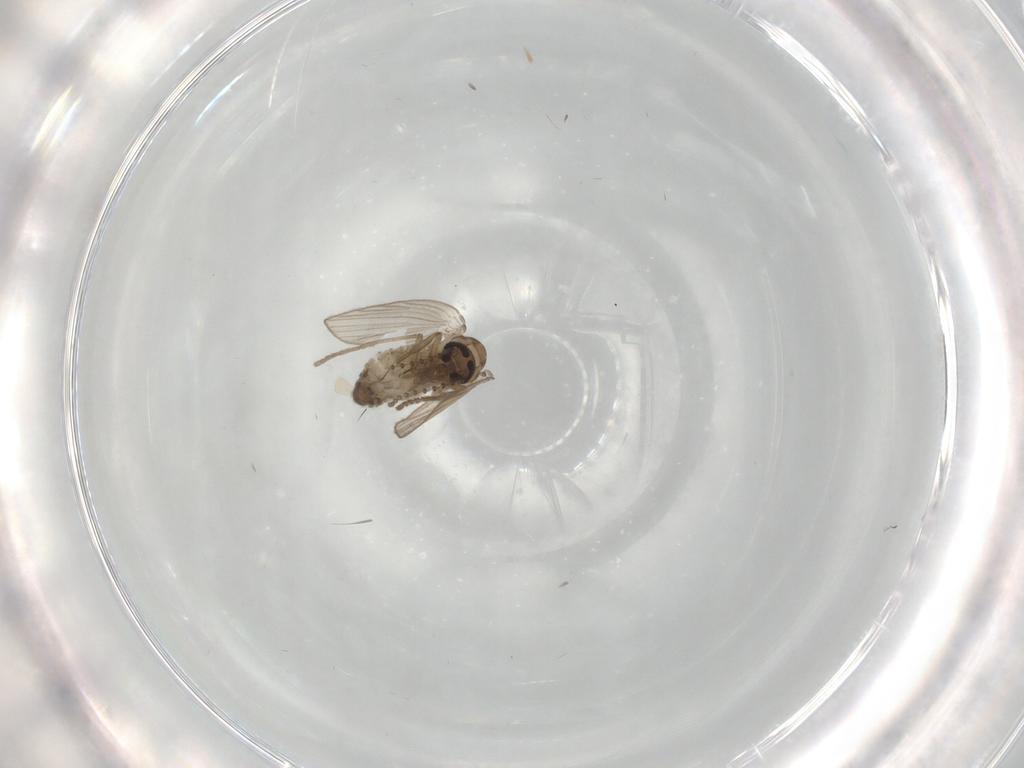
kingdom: Animalia
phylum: Arthropoda
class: Insecta
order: Diptera
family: Psychodidae
